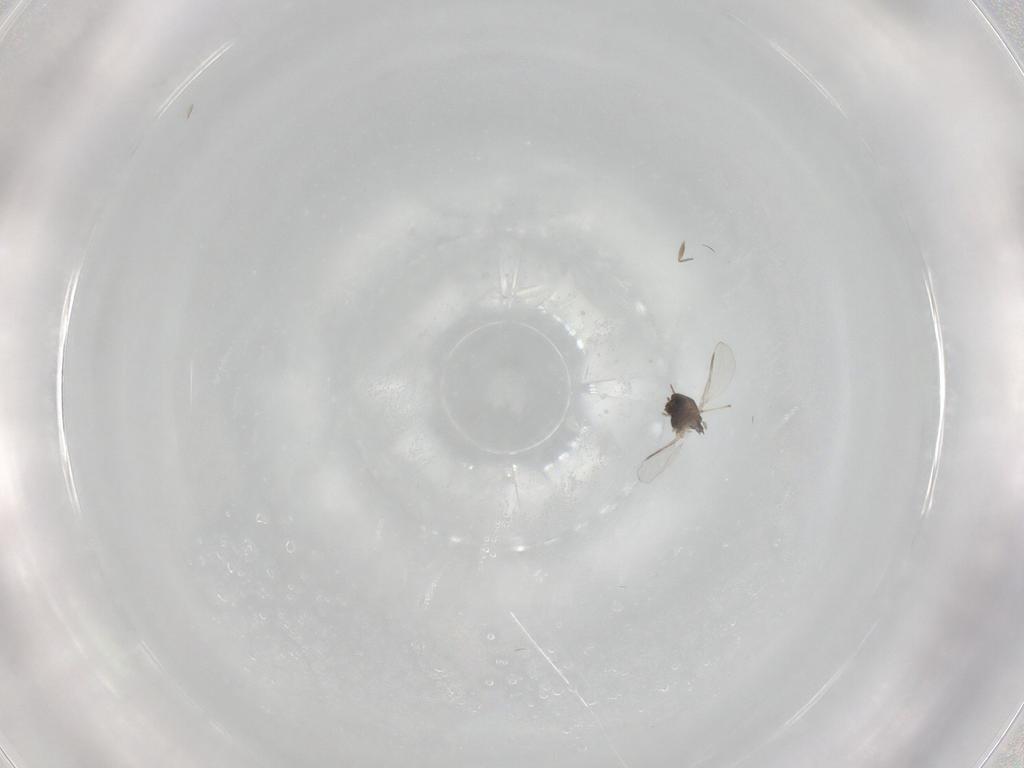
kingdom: Animalia
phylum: Arthropoda
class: Insecta
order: Diptera
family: Chironomidae
